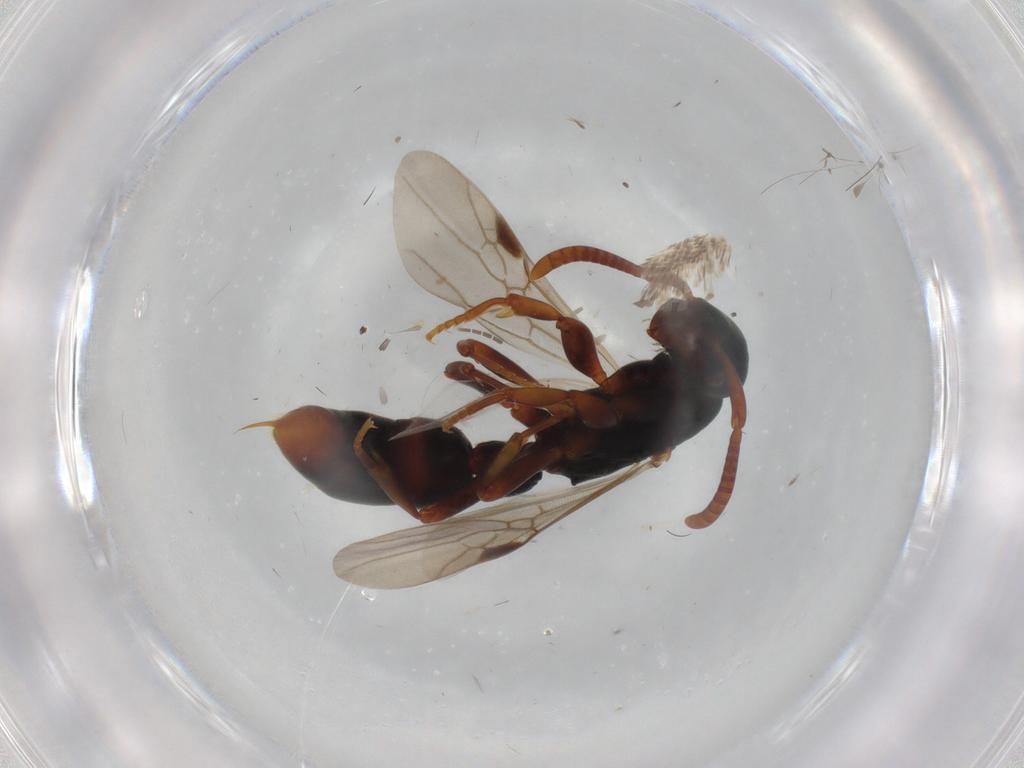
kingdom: Animalia
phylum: Arthropoda
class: Insecta
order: Hymenoptera
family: Formicidae
